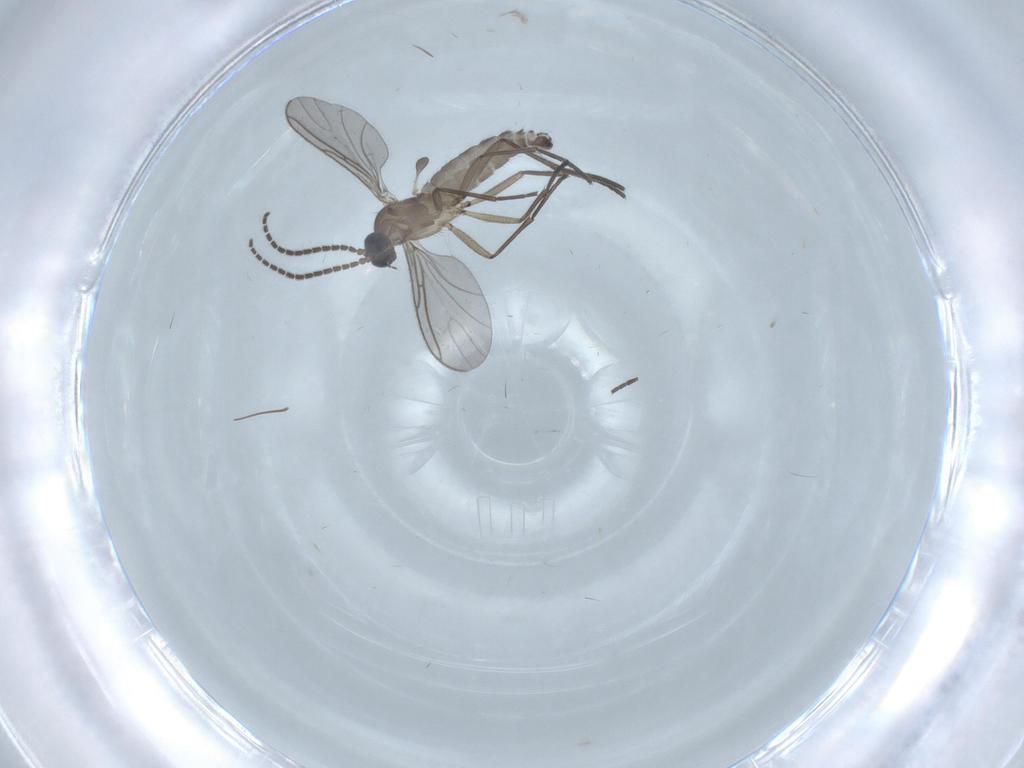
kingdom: Animalia
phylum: Arthropoda
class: Insecta
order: Diptera
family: Sciaridae
